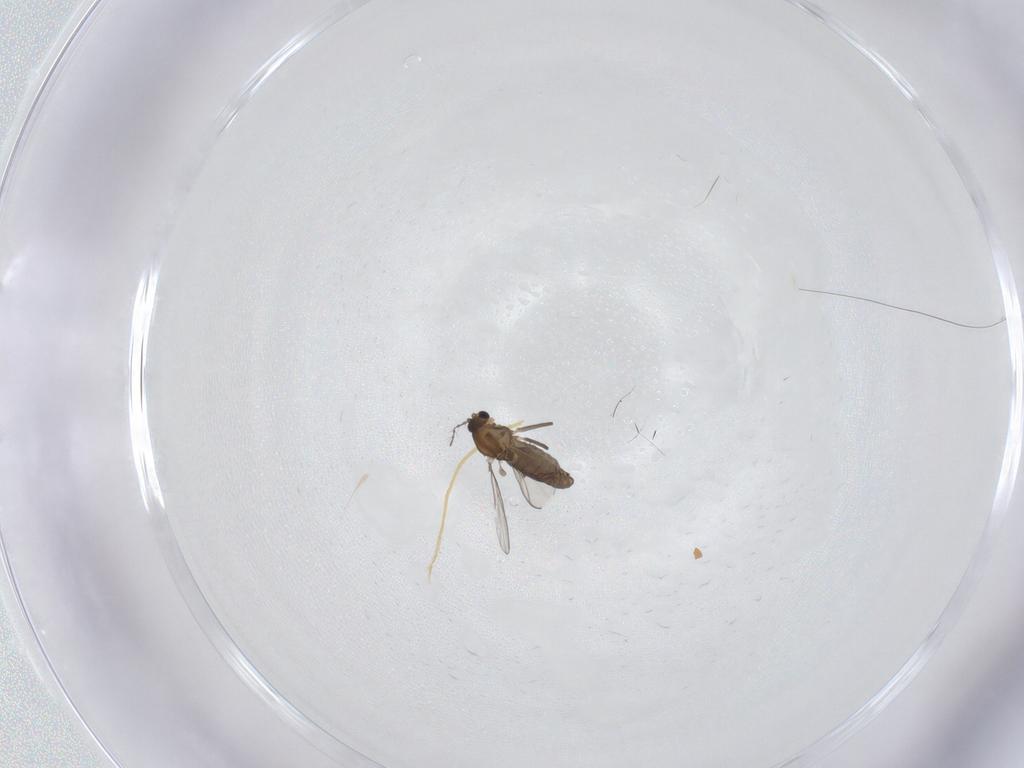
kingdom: Animalia
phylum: Arthropoda
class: Insecta
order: Diptera
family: Chironomidae
